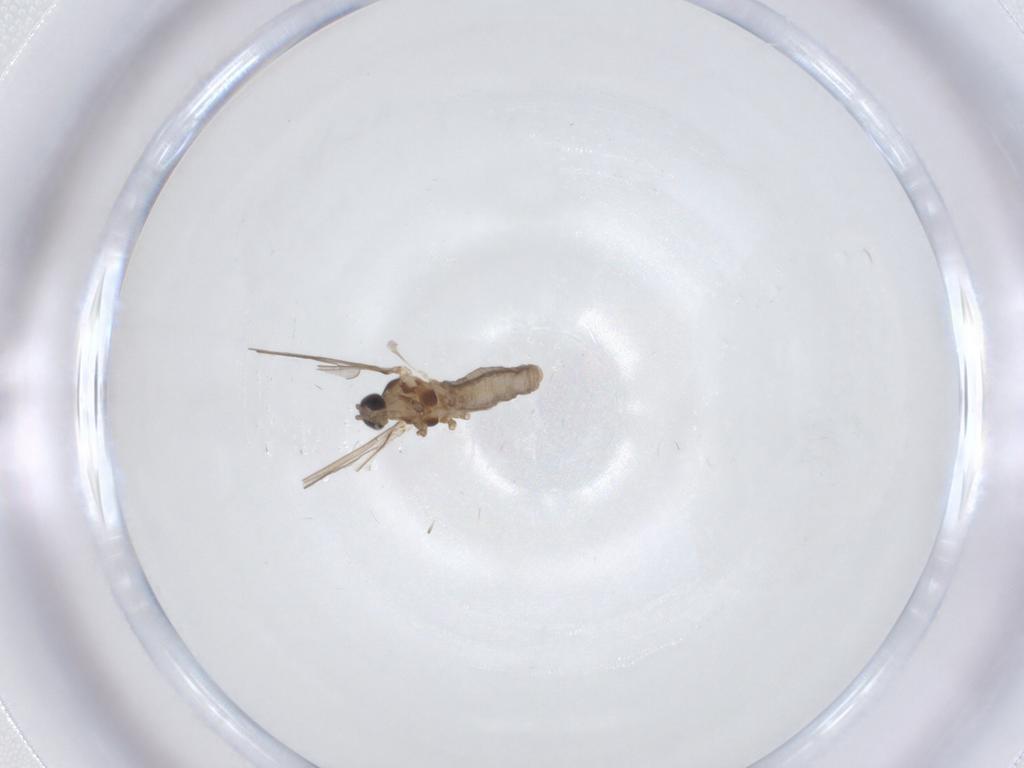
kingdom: Animalia
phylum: Arthropoda
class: Insecta
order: Diptera
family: Cecidomyiidae
